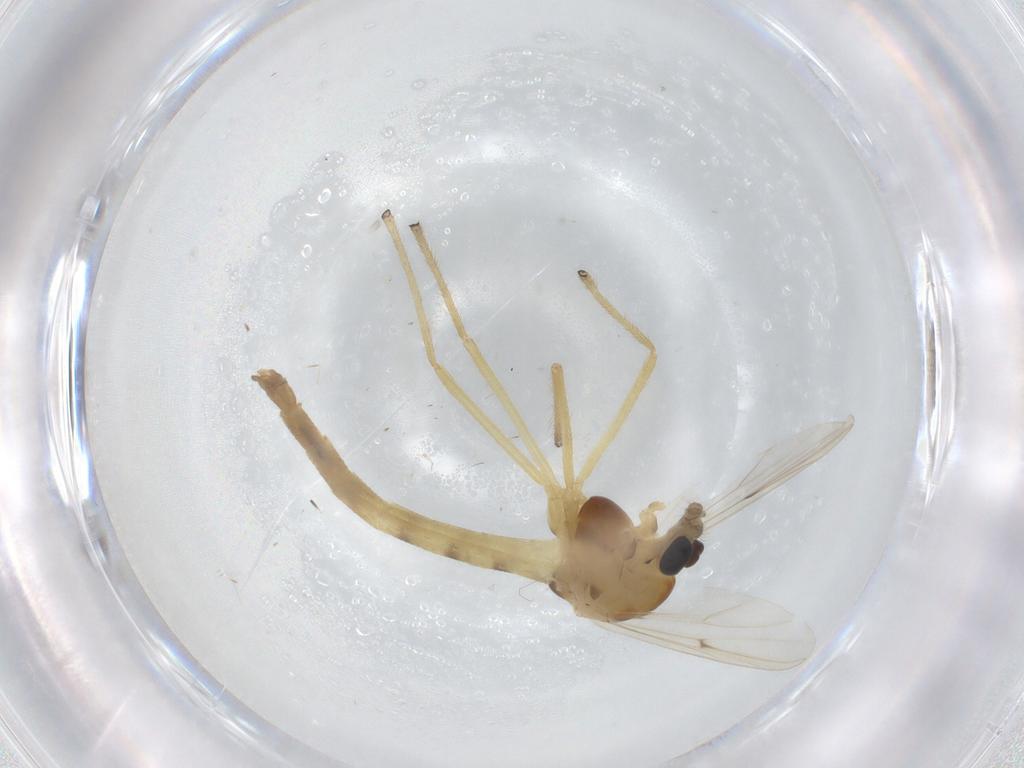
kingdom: Animalia
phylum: Arthropoda
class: Insecta
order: Diptera
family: Chironomidae
